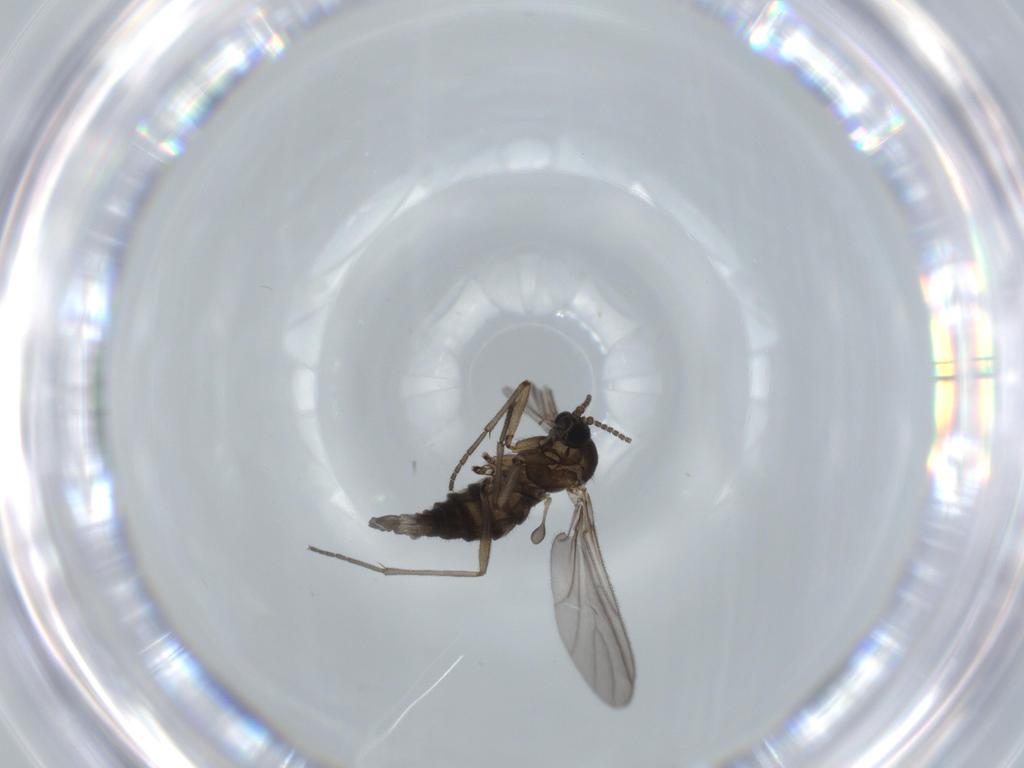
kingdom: Animalia
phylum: Arthropoda
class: Insecta
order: Diptera
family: Sciaridae
